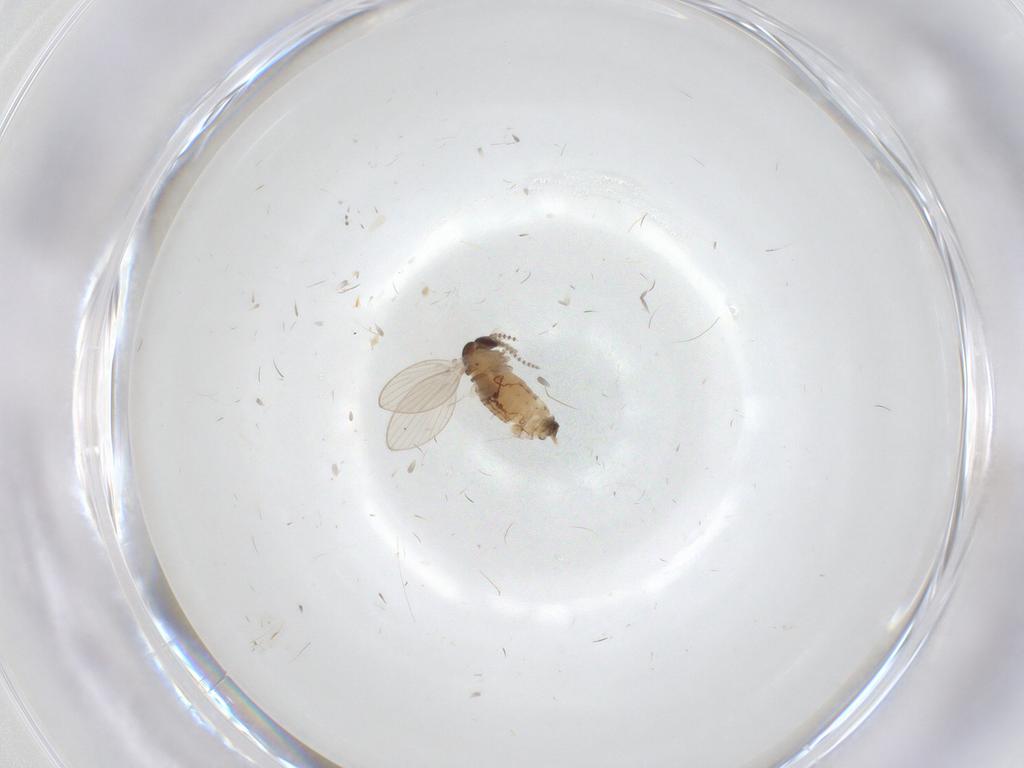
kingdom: Animalia
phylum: Arthropoda
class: Insecta
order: Diptera
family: Psychodidae
